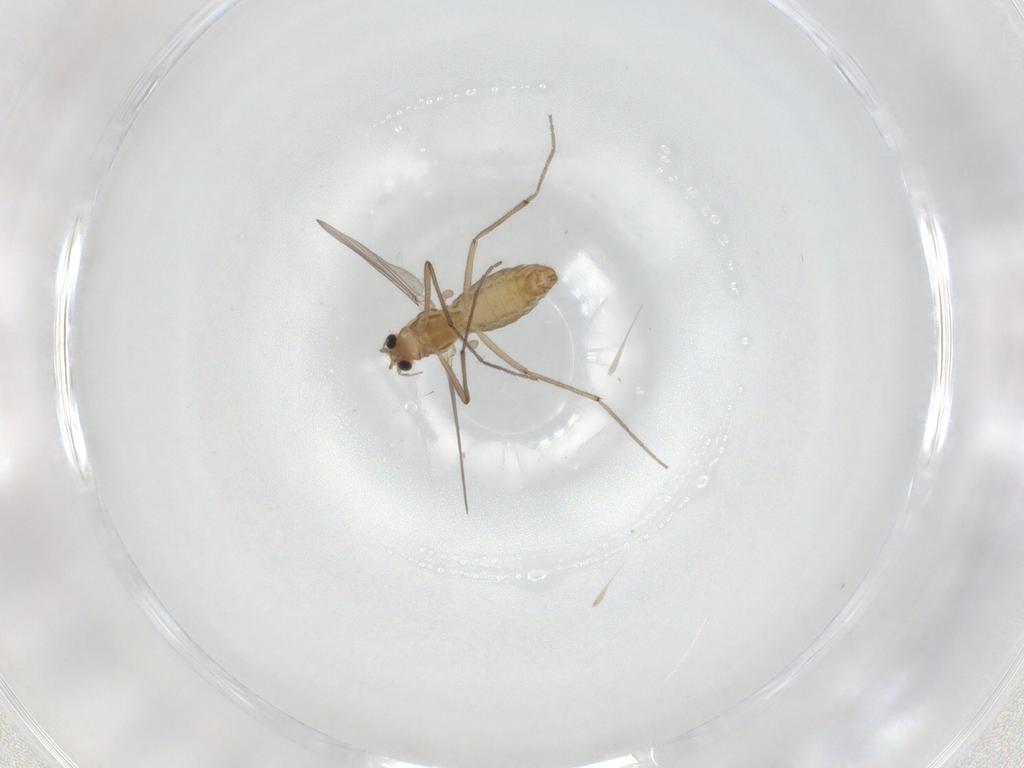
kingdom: Animalia
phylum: Arthropoda
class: Insecta
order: Diptera
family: Chironomidae
